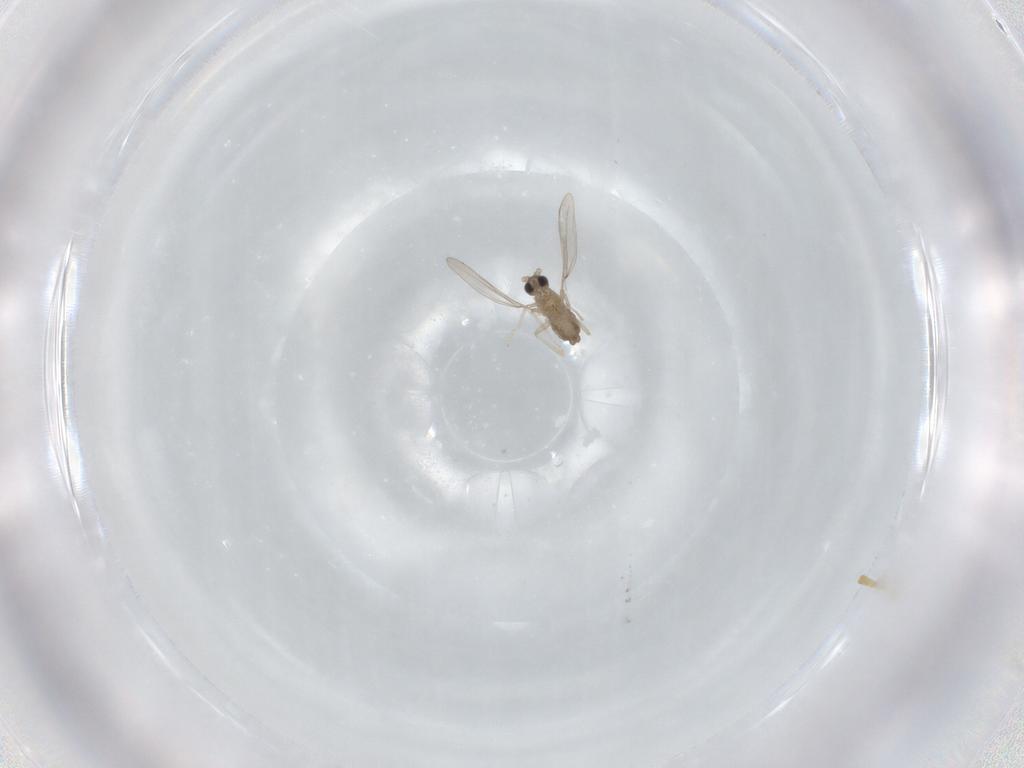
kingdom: Animalia
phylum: Arthropoda
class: Insecta
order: Diptera
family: Cecidomyiidae
